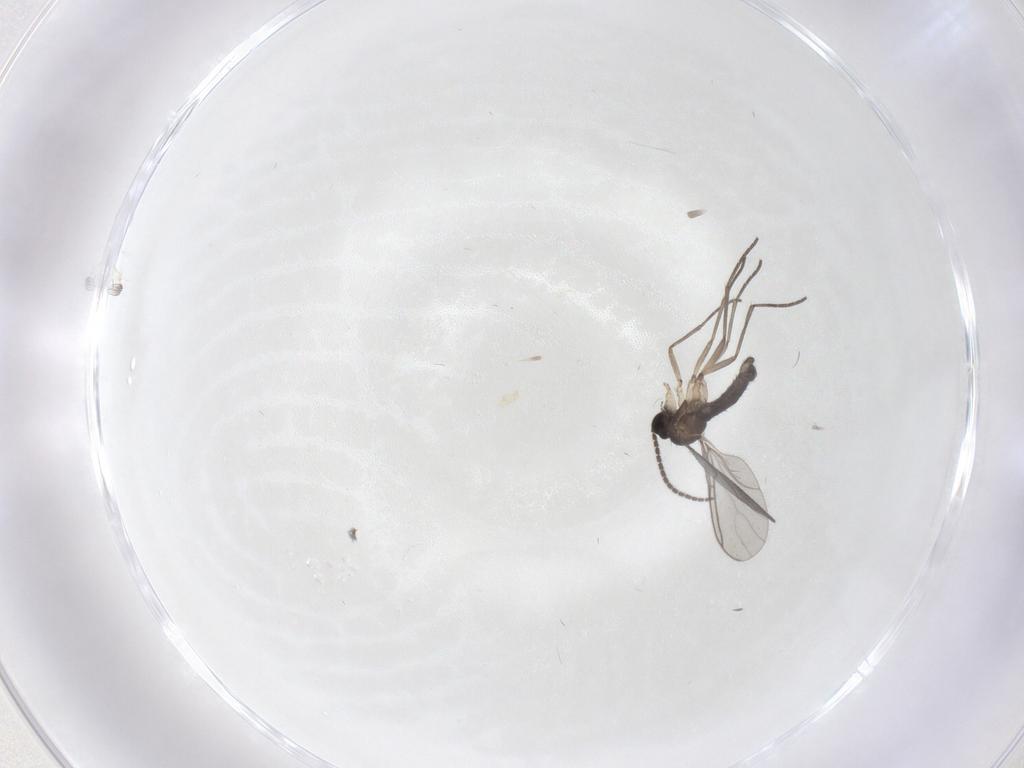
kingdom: Animalia
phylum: Arthropoda
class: Insecta
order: Diptera
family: Sciaridae
